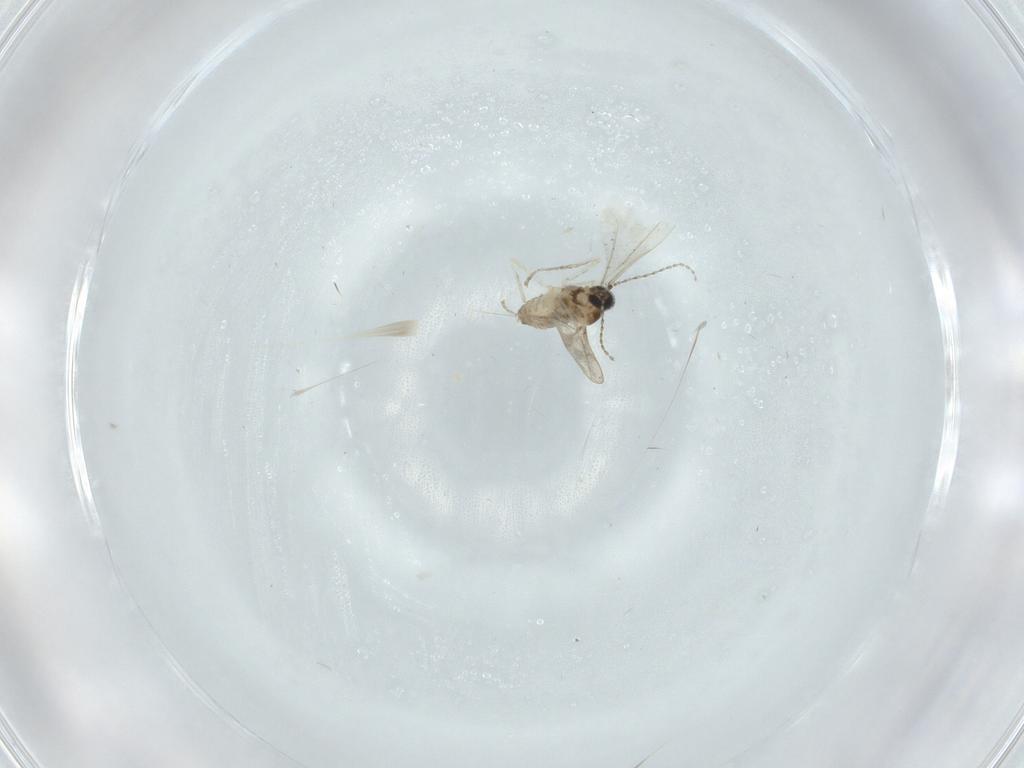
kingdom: Animalia
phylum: Arthropoda
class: Insecta
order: Diptera
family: Cecidomyiidae
